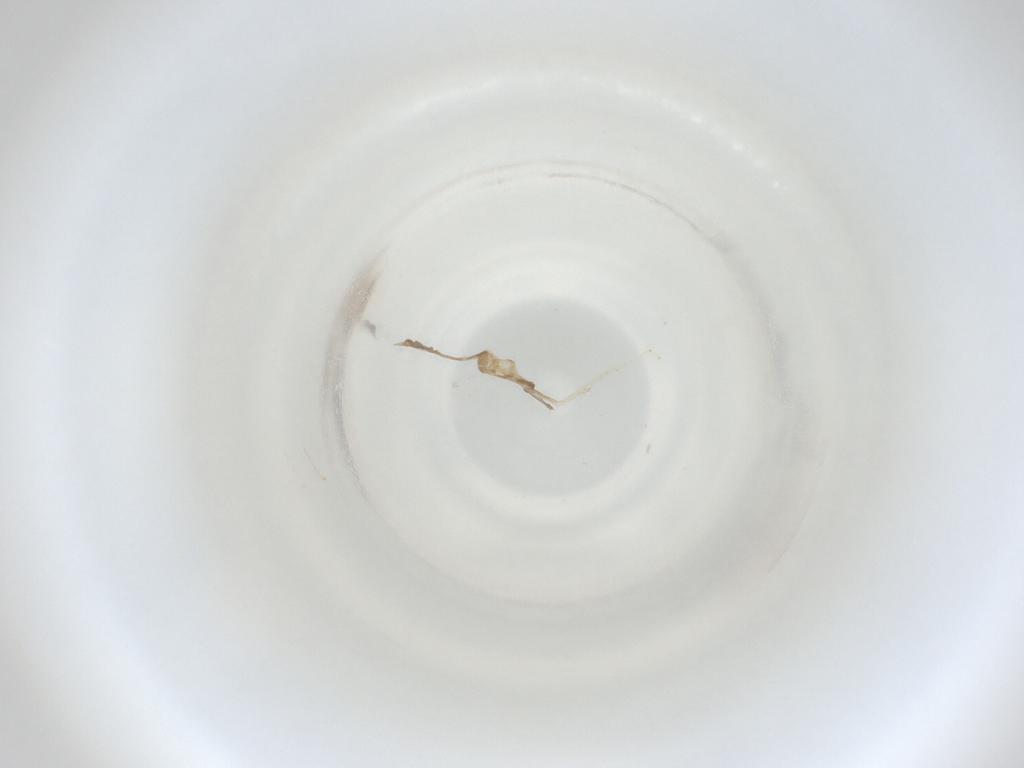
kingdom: Animalia
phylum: Arthropoda
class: Insecta
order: Diptera
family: Cecidomyiidae
